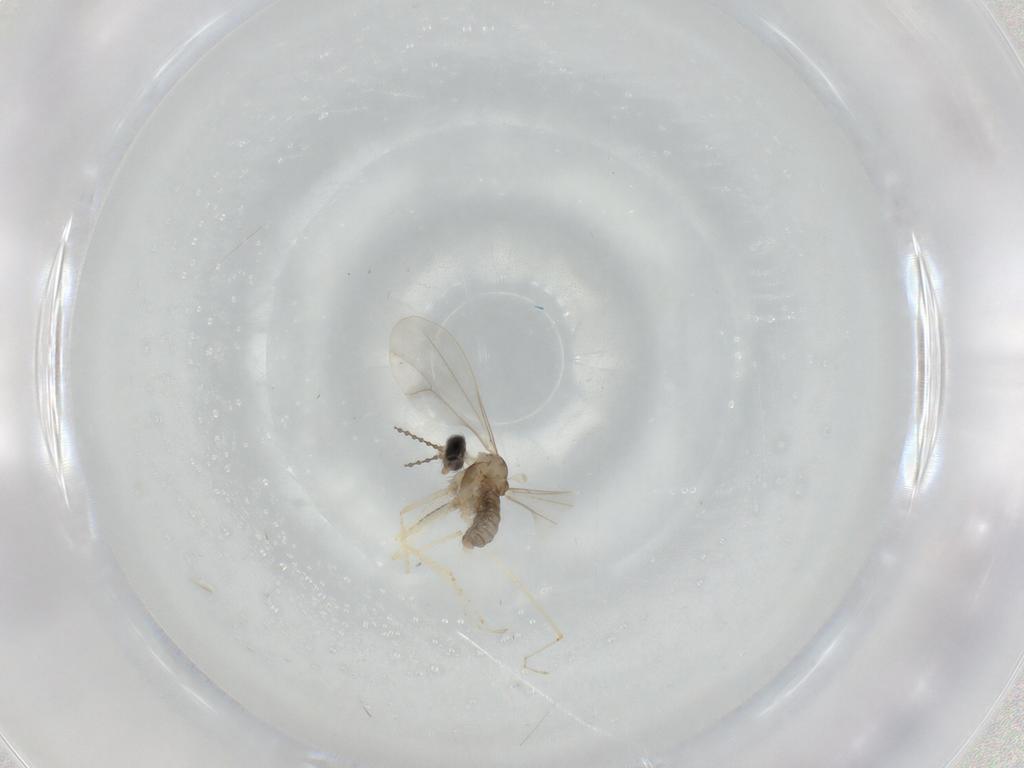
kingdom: Animalia
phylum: Arthropoda
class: Insecta
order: Diptera
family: Cecidomyiidae
